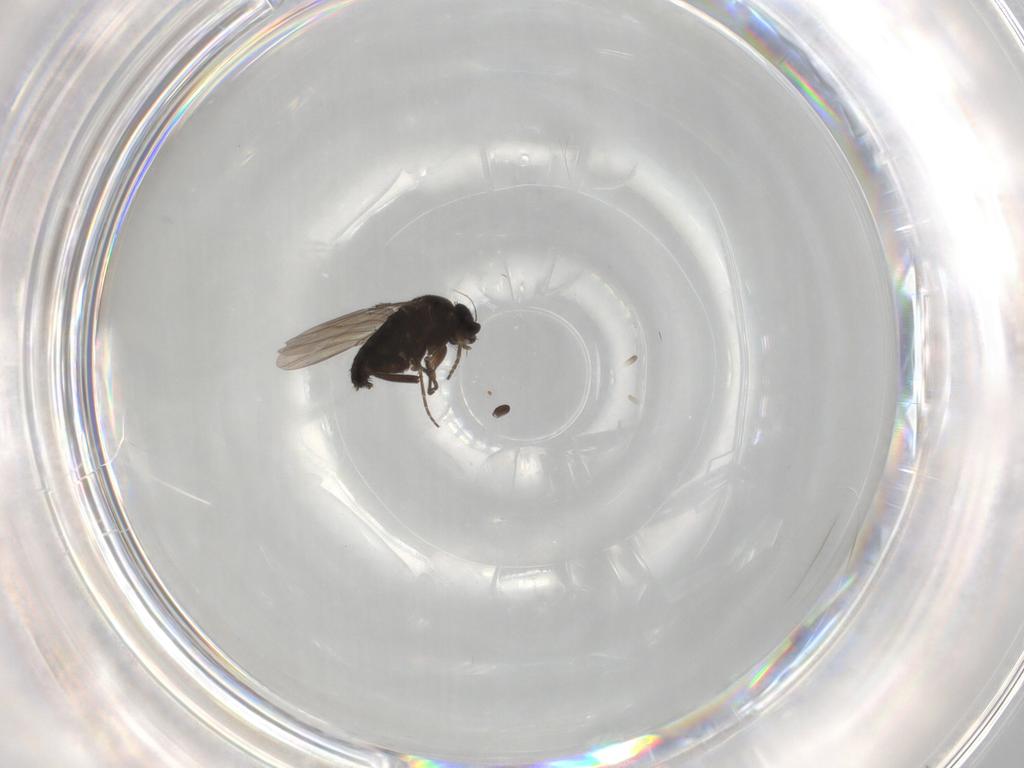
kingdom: Animalia
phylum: Arthropoda
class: Insecta
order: Diptera
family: Phoridae
